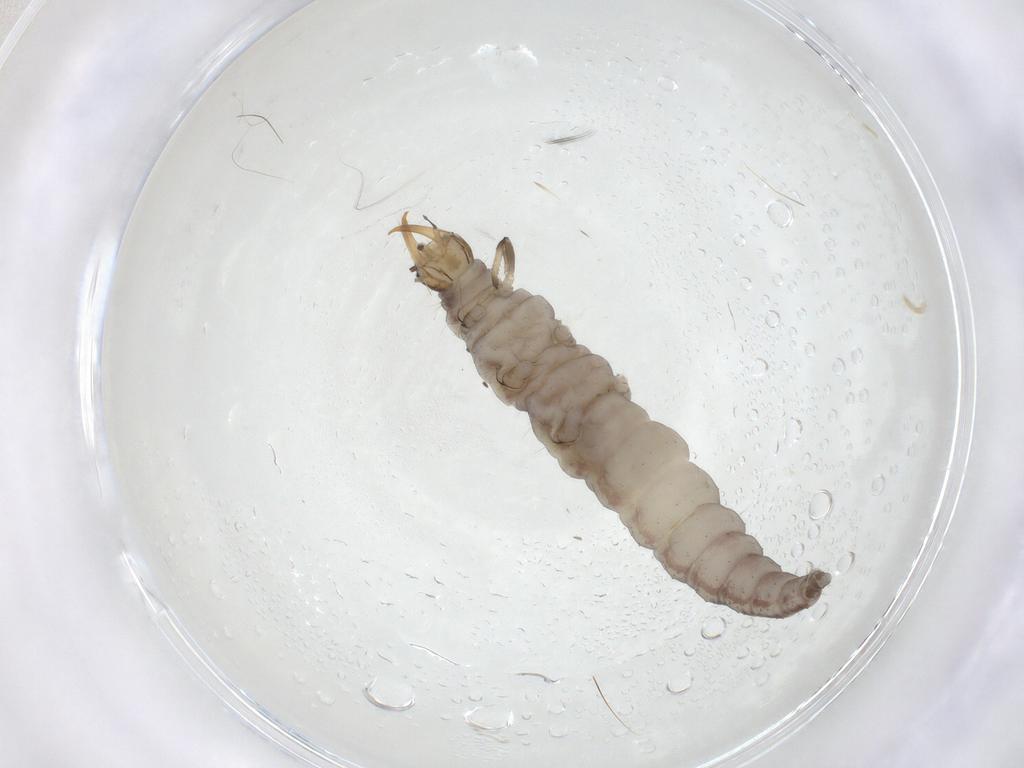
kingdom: Animalia
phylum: Arthropoda
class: Insecta
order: Neuroptera
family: Hemerobiidae
